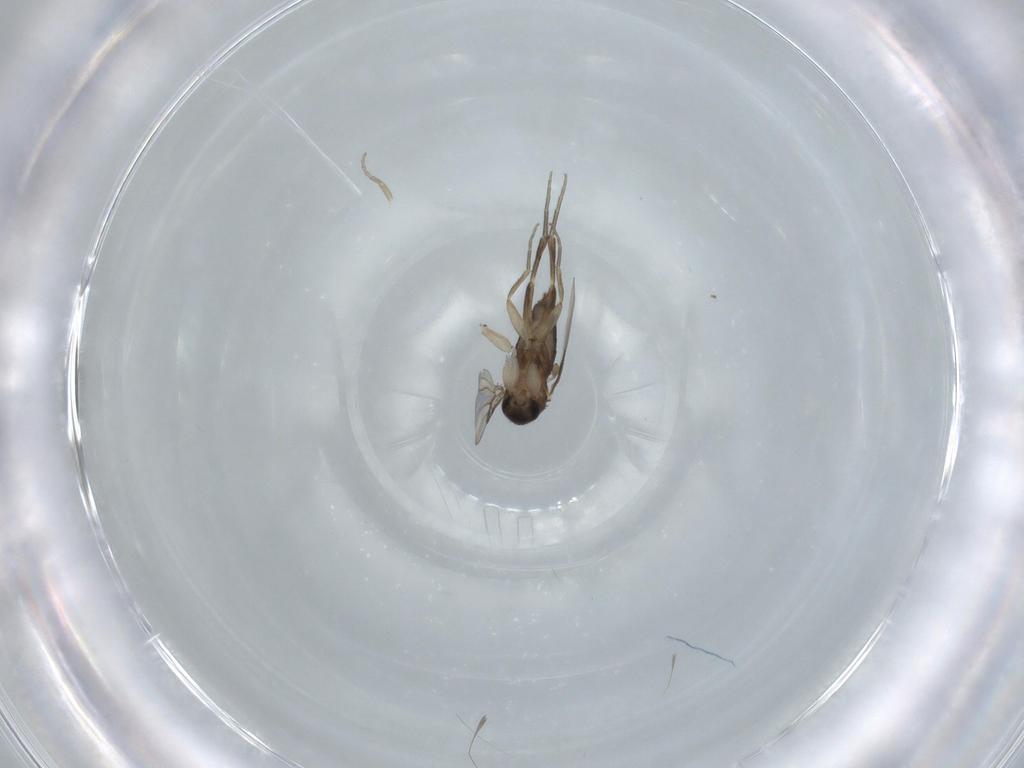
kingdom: Animalia
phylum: Arthropoda
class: Insecta
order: Diptera
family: Phoridae
